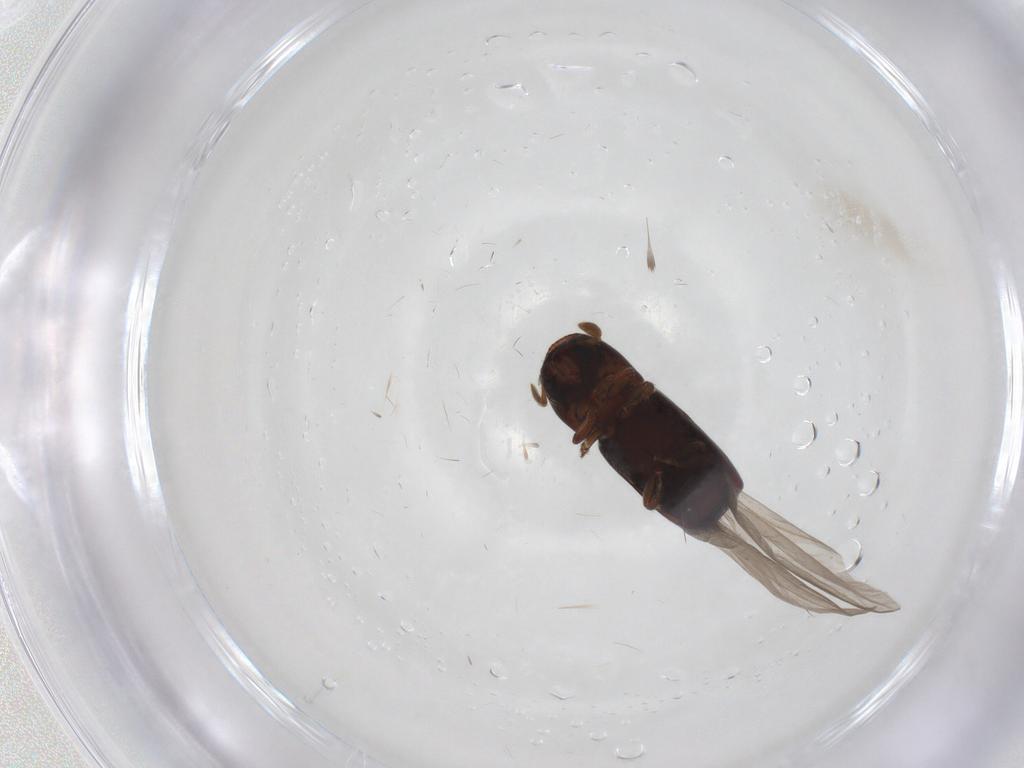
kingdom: Animalia
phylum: Arthropoda
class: Insecta
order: Coleoptera
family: Curculionidae
